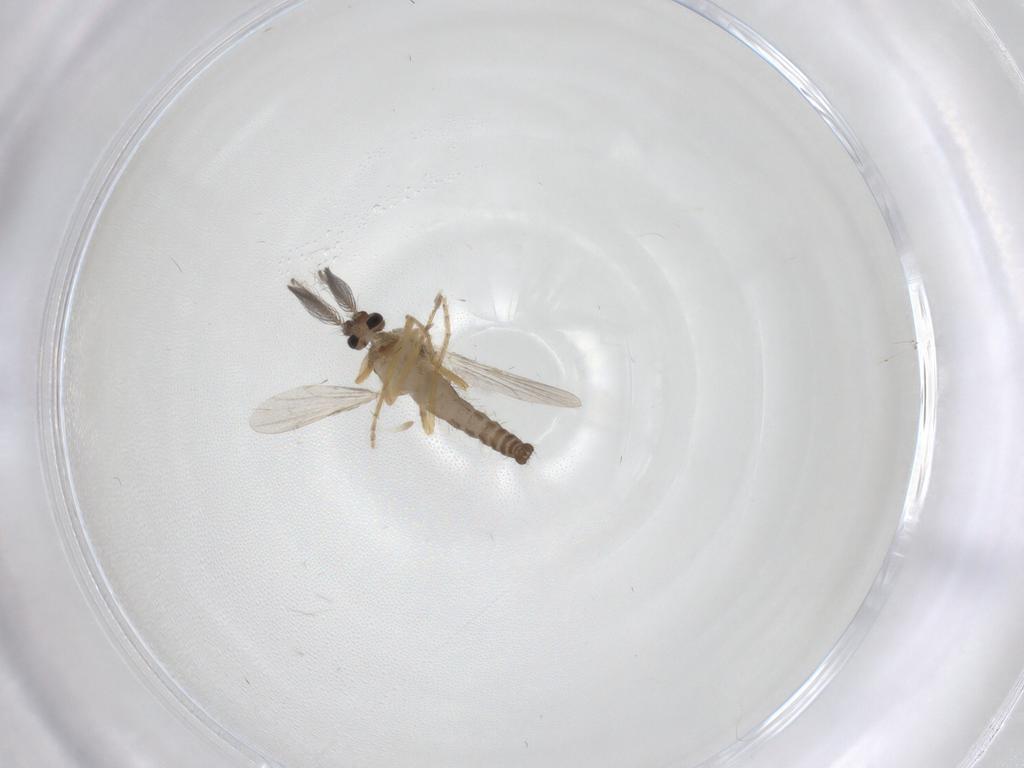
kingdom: Animalia
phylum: Arthropoda
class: Insecta
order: Diptera
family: Ceratopogonidae
